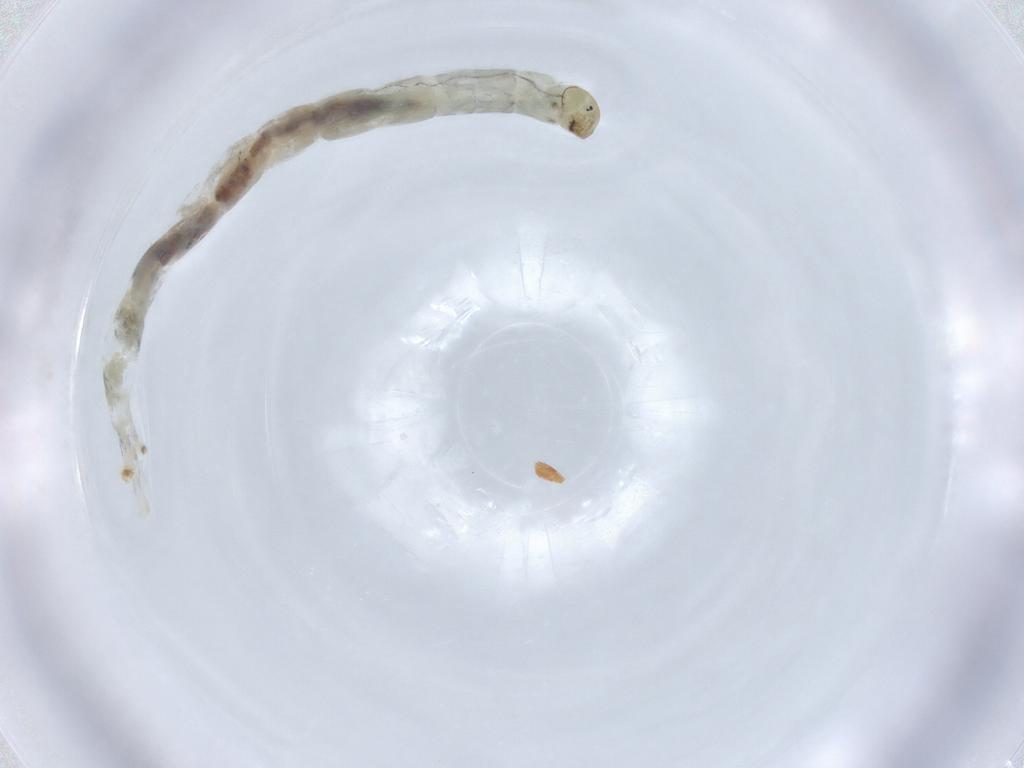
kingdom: Animalia
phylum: Arthropoda
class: Insecta
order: Diptera
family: Chironomidae
